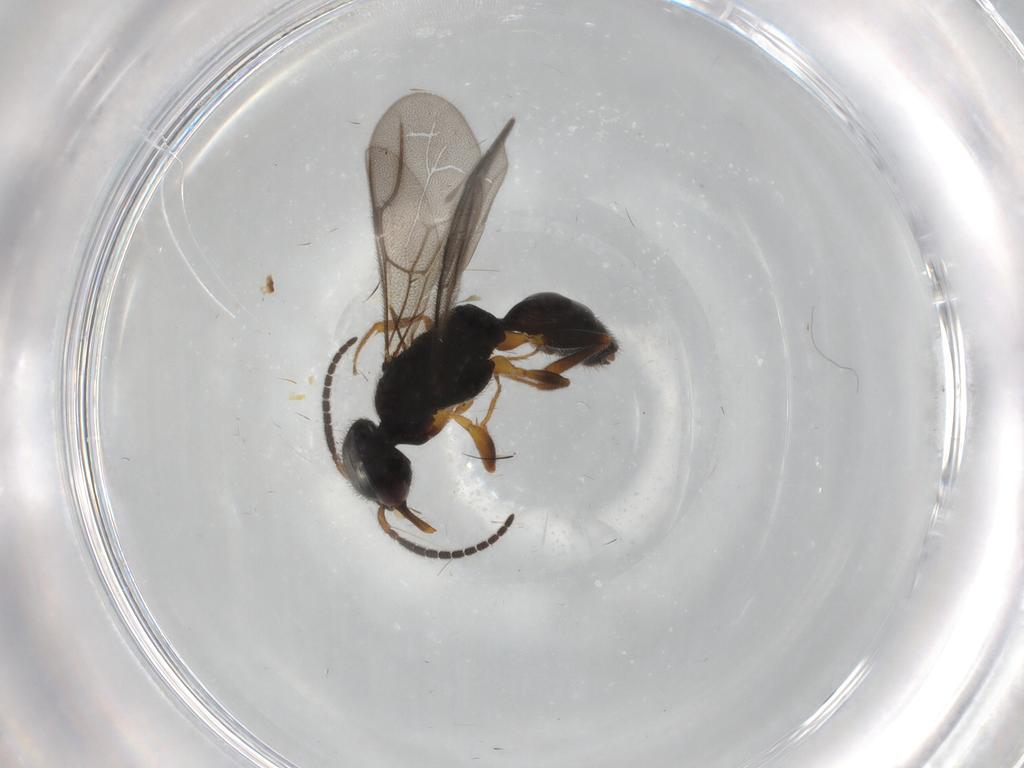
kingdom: Animalia
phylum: Arthropoda
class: Insecta
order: Hymenoptera
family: Bethylidae
